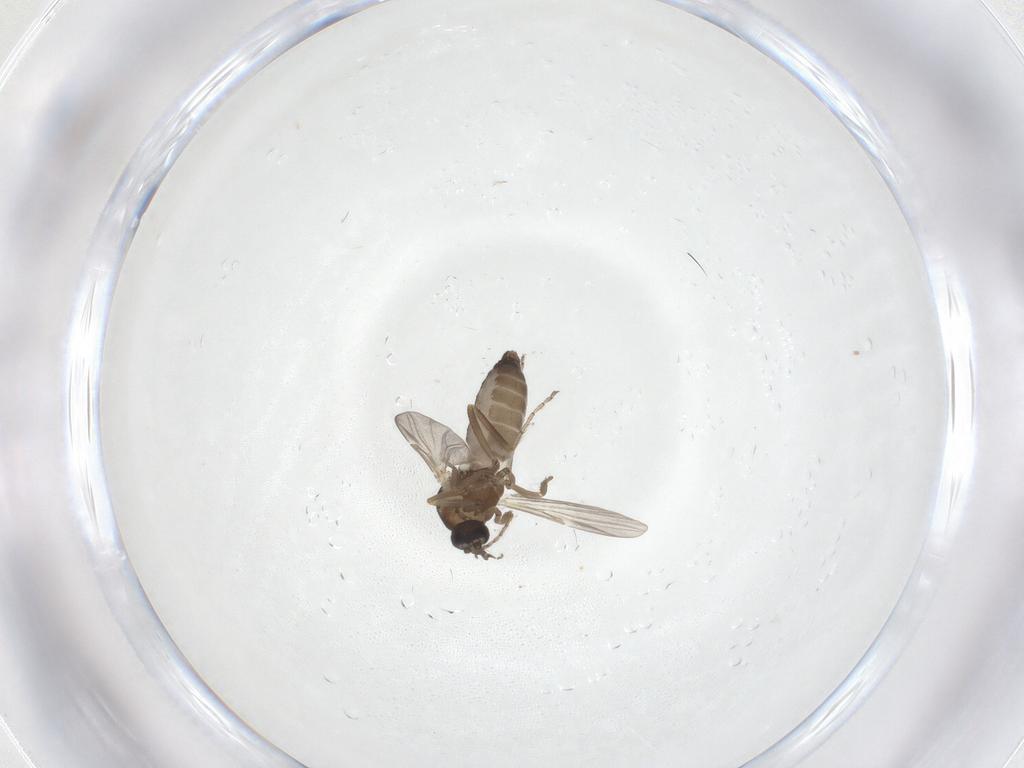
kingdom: Animalia
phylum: Arthropoda
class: Insecta
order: Diptera
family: Ceratopogonidae
